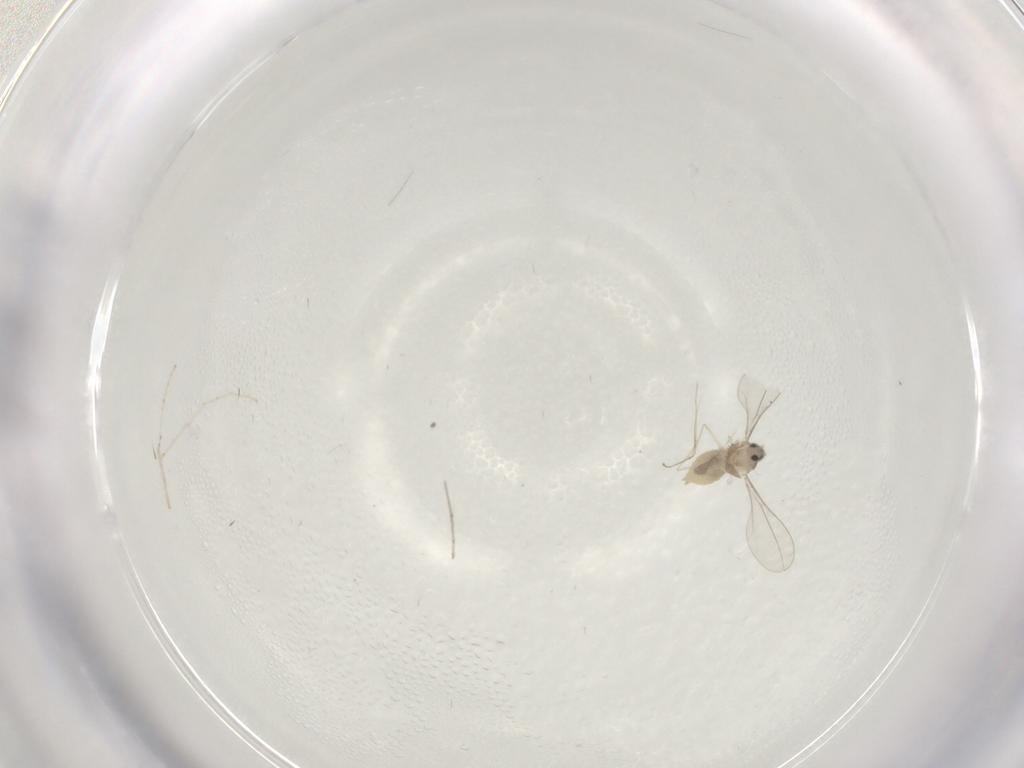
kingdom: Animalia
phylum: Arthropoda
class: Insecta
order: Diptera
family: Cecidomyiidae
